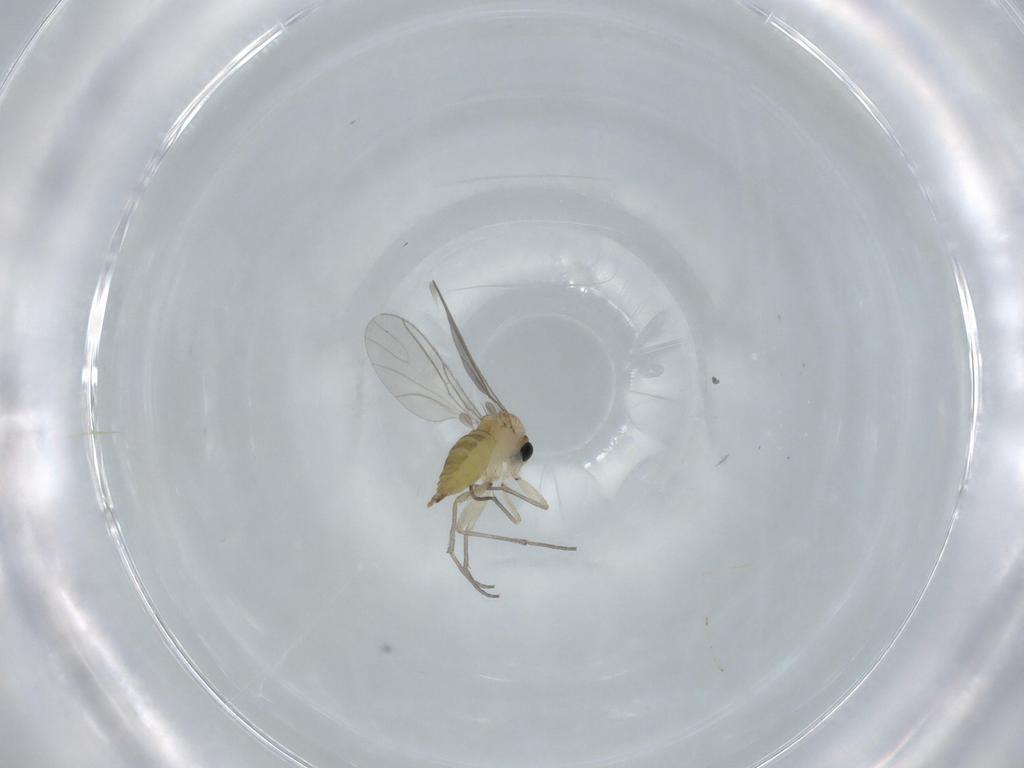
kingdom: Animalia
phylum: Arthropoda
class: Insecta
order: Diptera
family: Sciaridae
